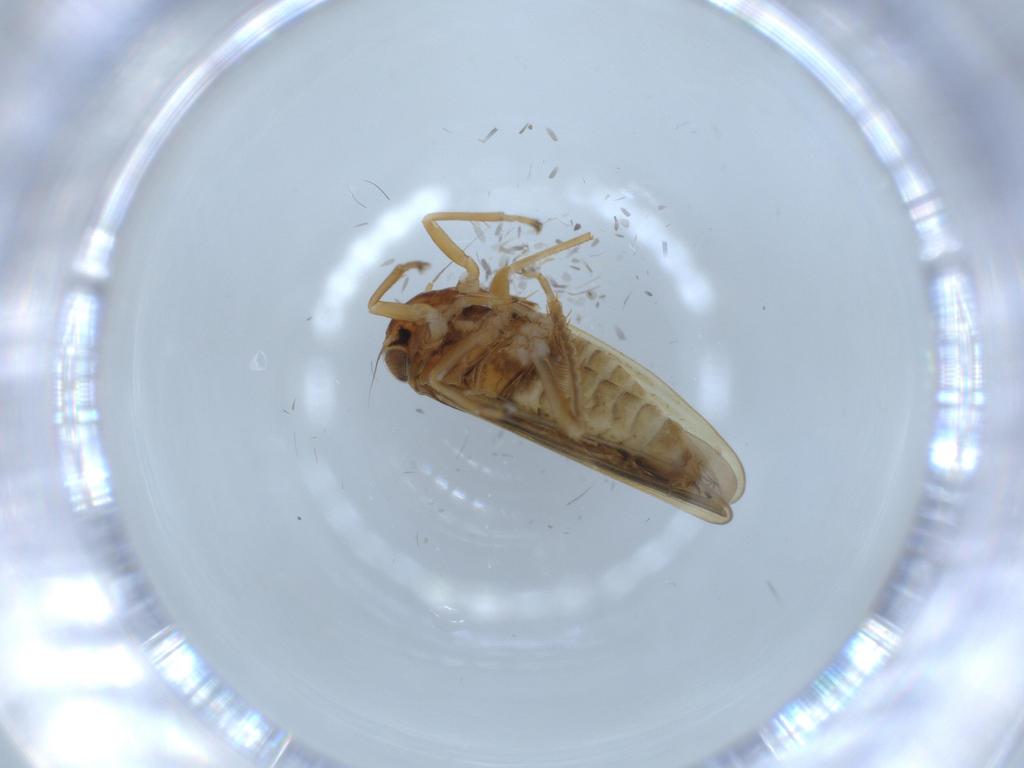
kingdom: Animalia
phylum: Arthropoda
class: Insecta
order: Hemiptera
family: Cicadellidae
